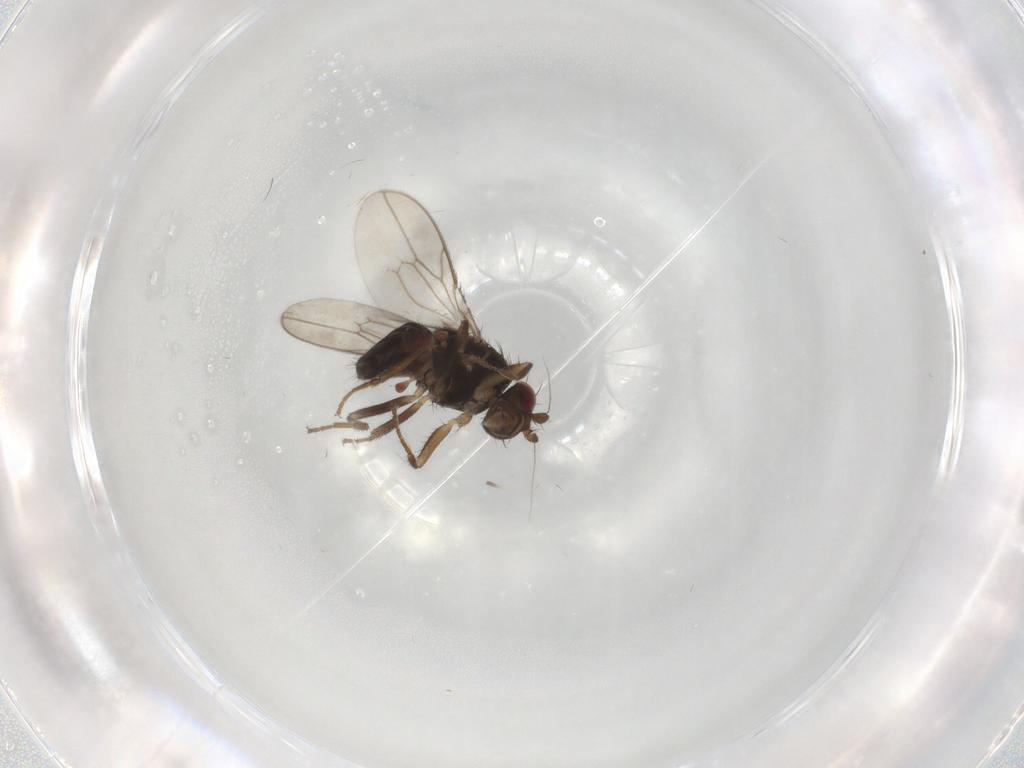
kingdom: Animalia
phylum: Arthropoda
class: Insecta
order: Diptera
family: Sphaeroceridae
